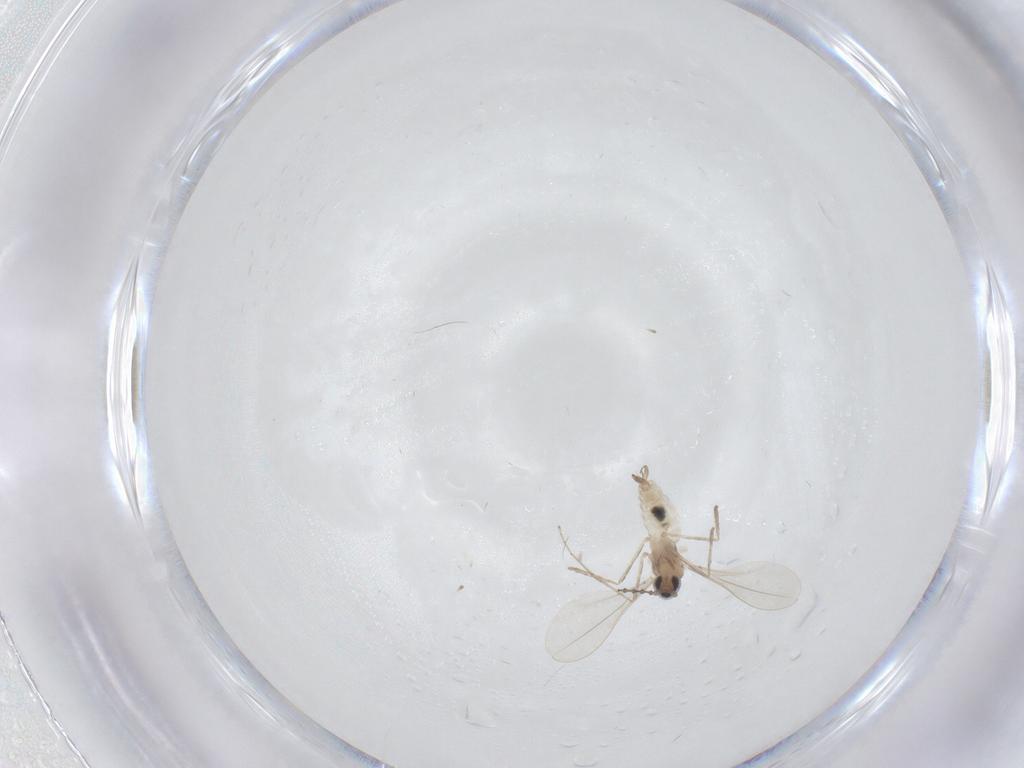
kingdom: Animalia
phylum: Arthropoda
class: Insecta
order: Diptera
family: Cecidomyiidae
